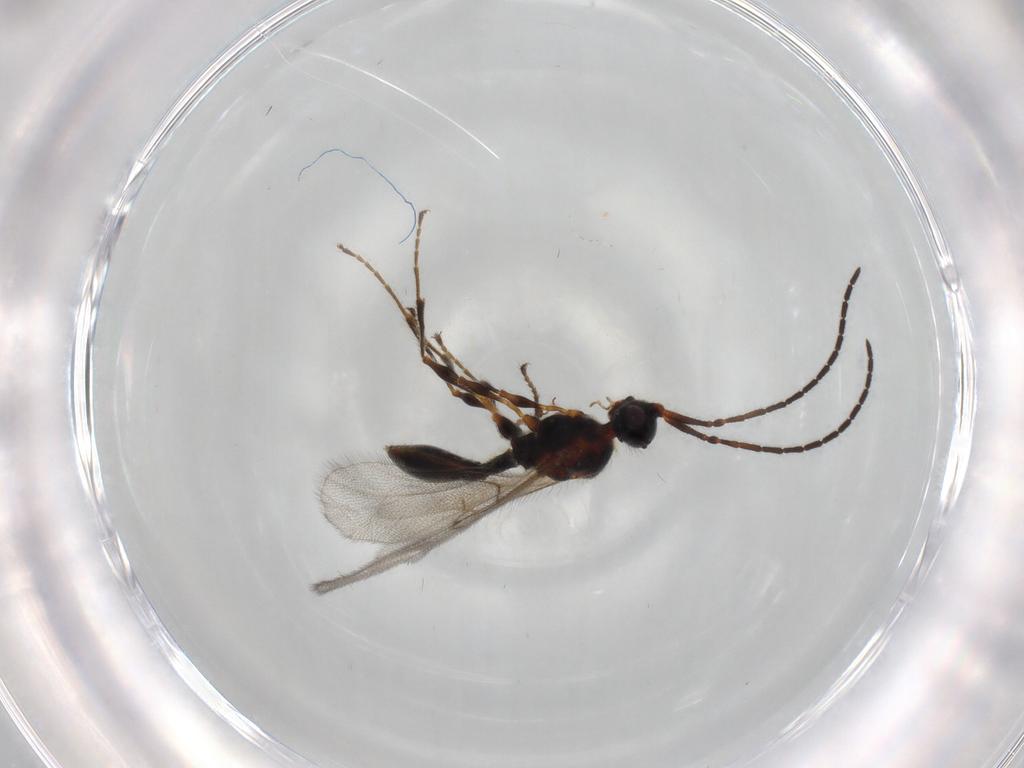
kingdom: Animalia
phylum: Arthropoda
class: Insecta
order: Hymenoptera
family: Diapriidae
